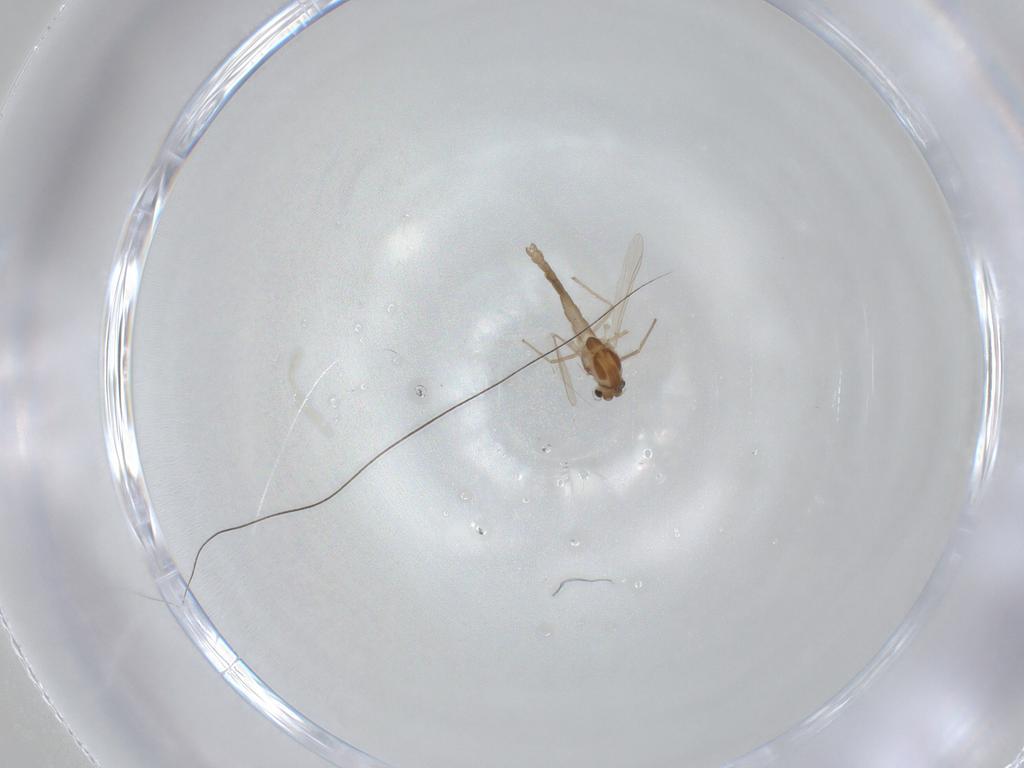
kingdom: Animalia
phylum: Arthropoda
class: Insecta
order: Diptera
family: Chironomidae
